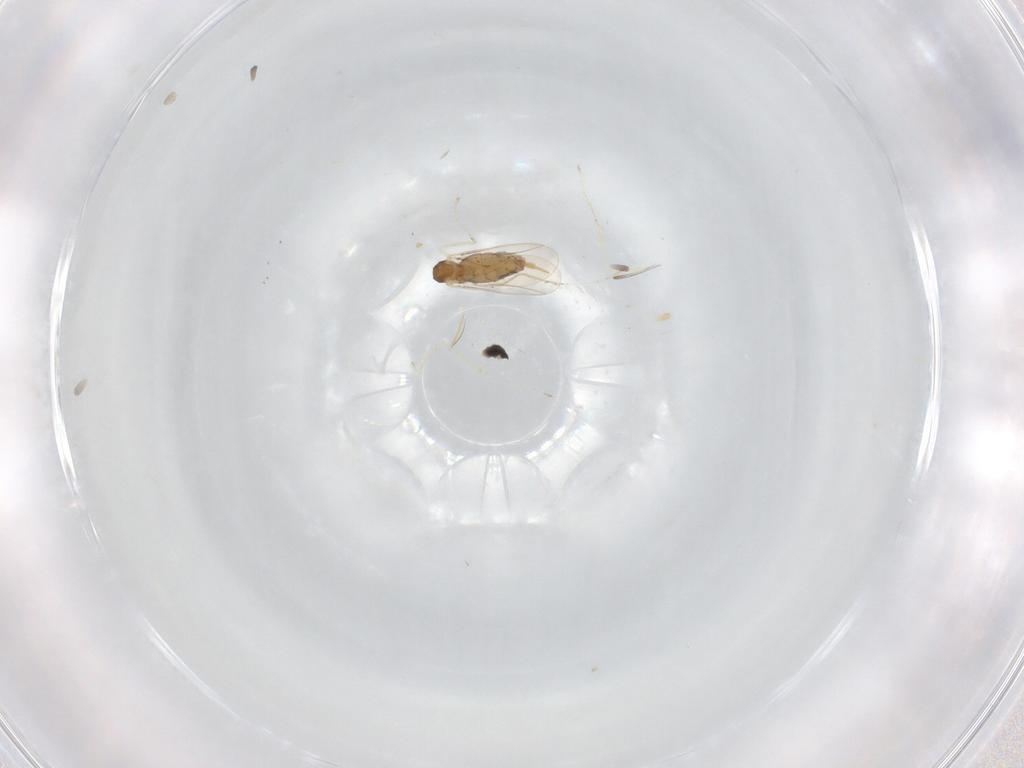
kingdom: Animalia
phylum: Arthropoda
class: Insecta
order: Diptera
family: Cecidomyiidae
